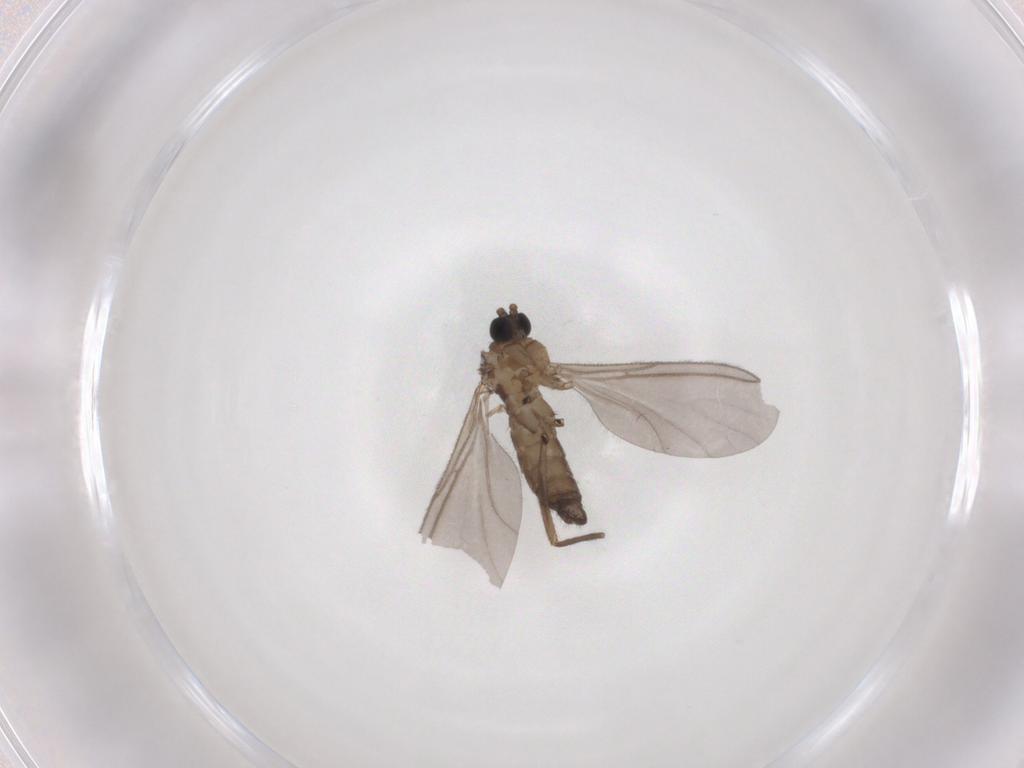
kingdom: Animalia
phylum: Arthropoda
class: Insecta
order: Diptera
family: Sciaridae
